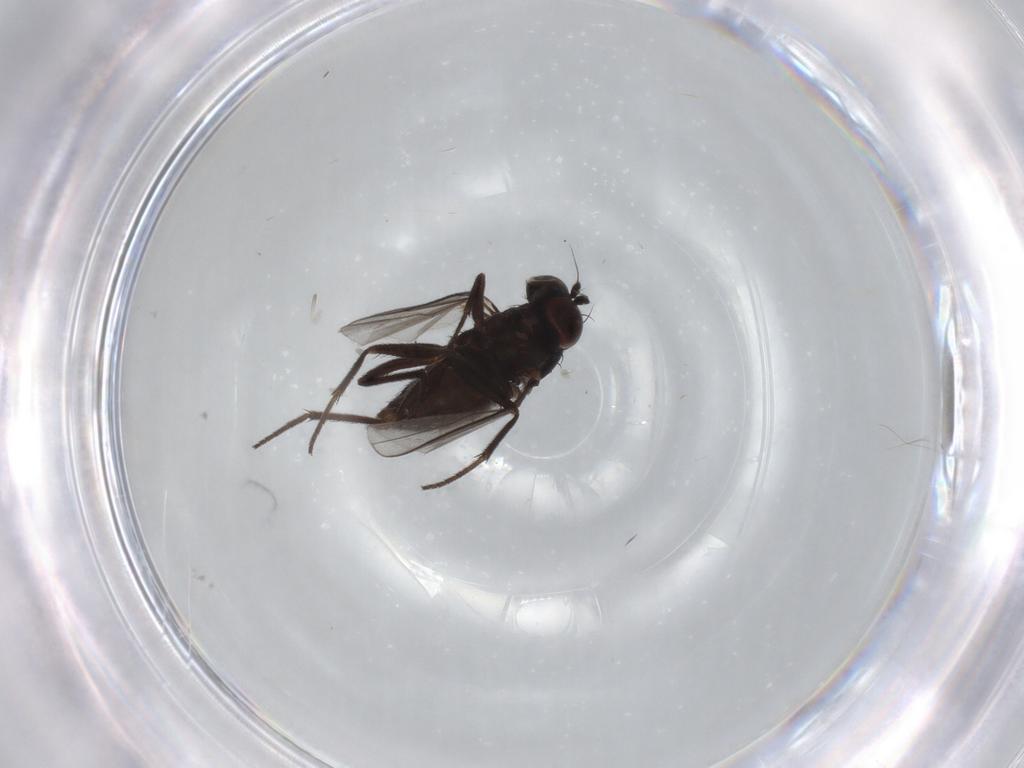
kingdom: Animalia
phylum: Arthropoda
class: Insecta
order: Diptera
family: Dolichopodidae
